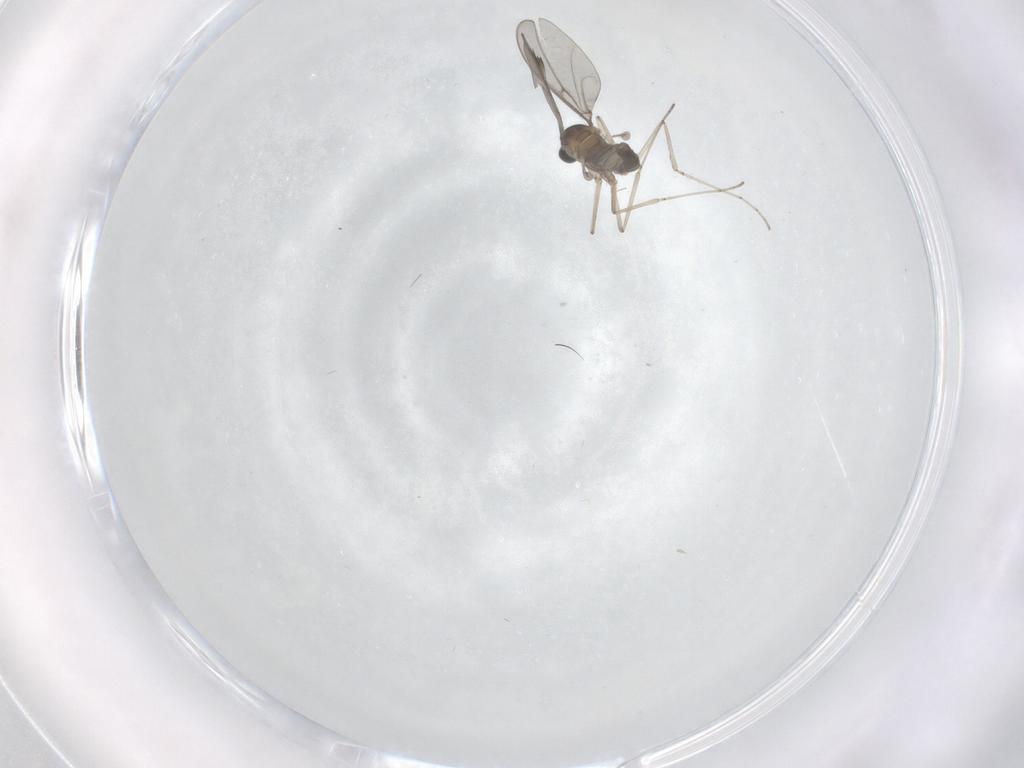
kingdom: Animalia
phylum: Arthropoda
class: Insecta
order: Diptera
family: Cecidomyiidae
